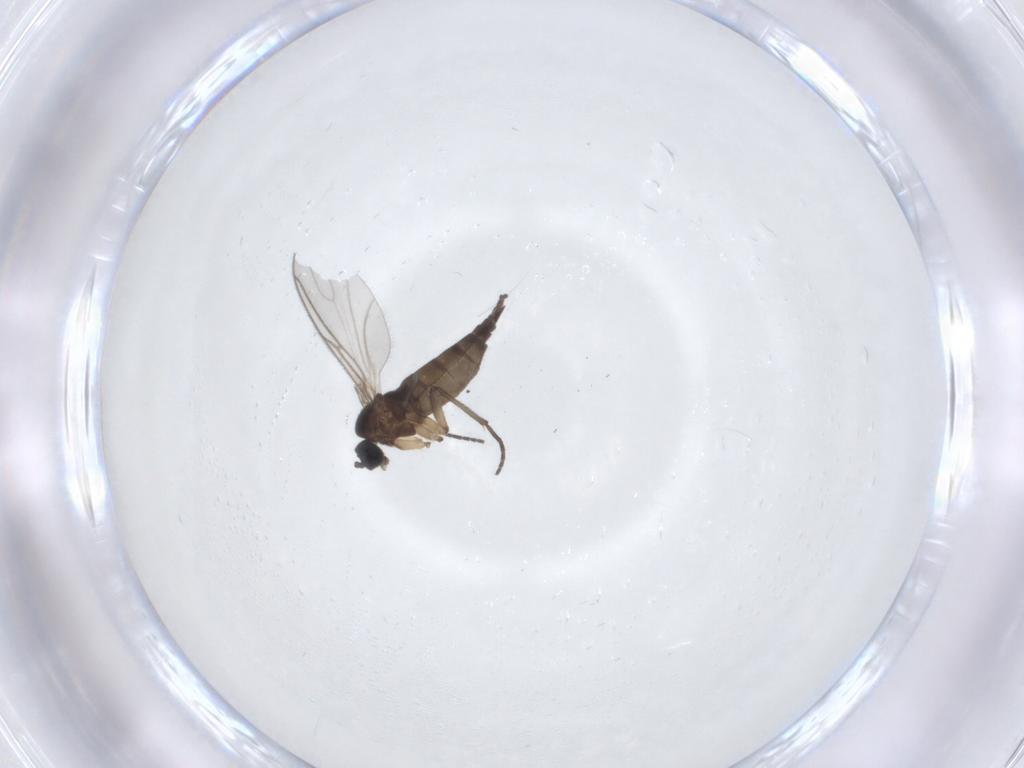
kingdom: Animalia
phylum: Arthropoda
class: Insecta
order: Diptera
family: Sciaridae
